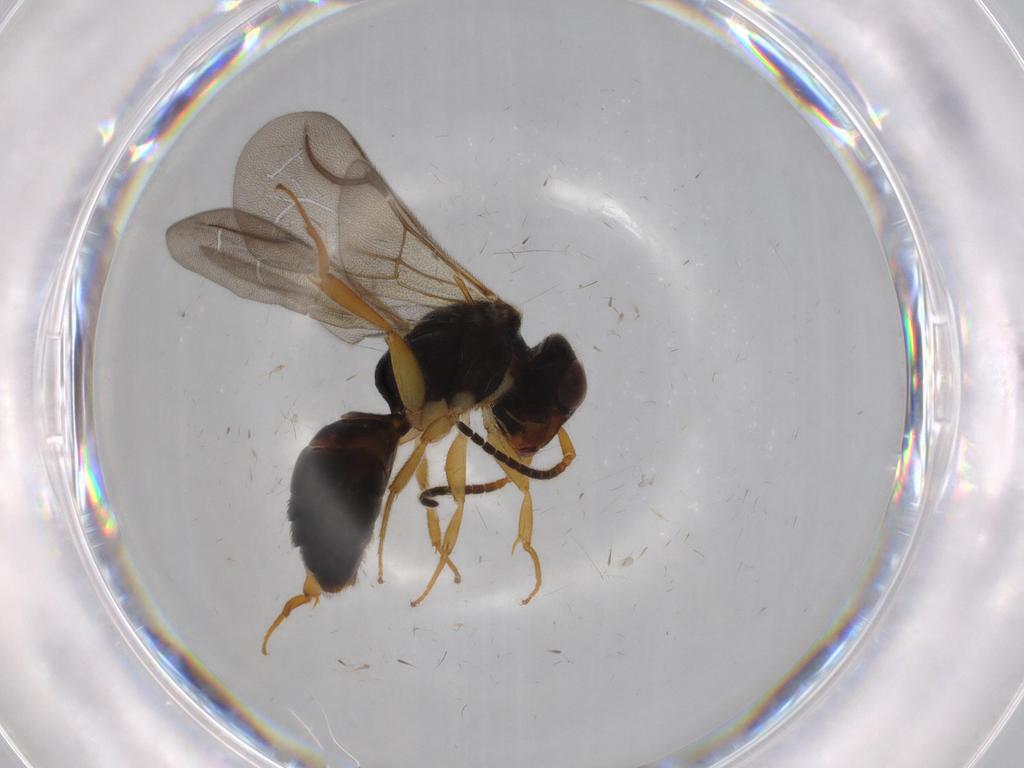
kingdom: Animalia
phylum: Arthropoda
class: Insecta
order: Hymenoptera
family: Bethylidae
